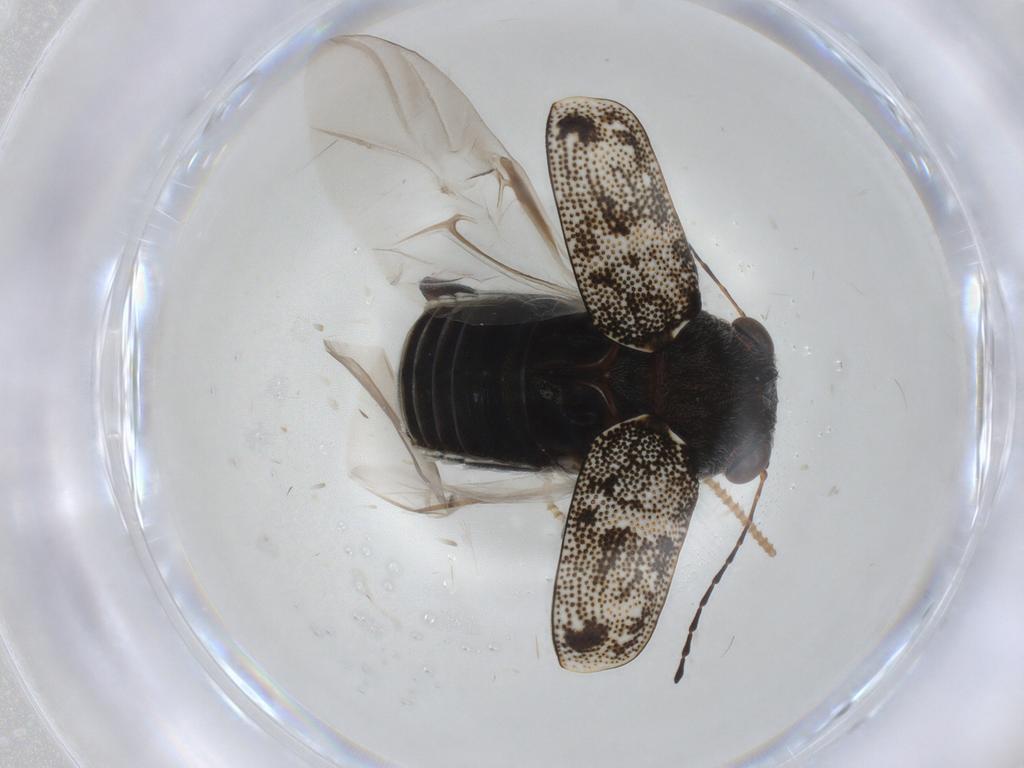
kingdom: Animalia
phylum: Arthropoda
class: Insecta
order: Coleoptera
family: Chrysomelidae
